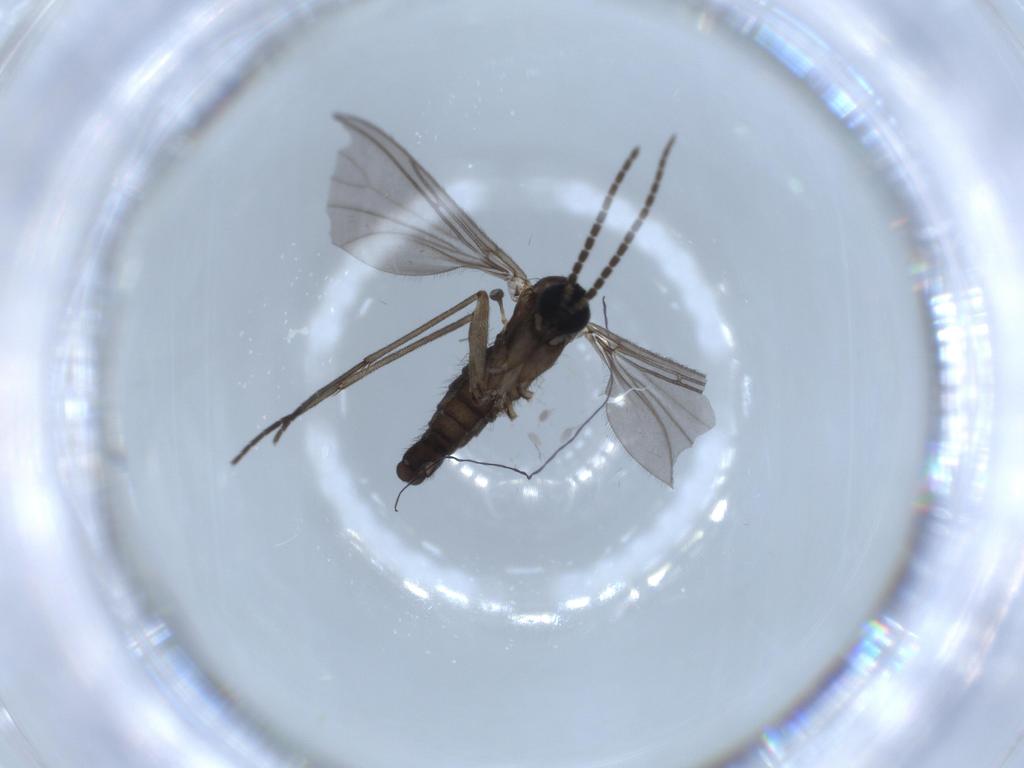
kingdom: Animalia
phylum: Arthropoda
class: Insecta
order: Diptera
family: Sciaridae
